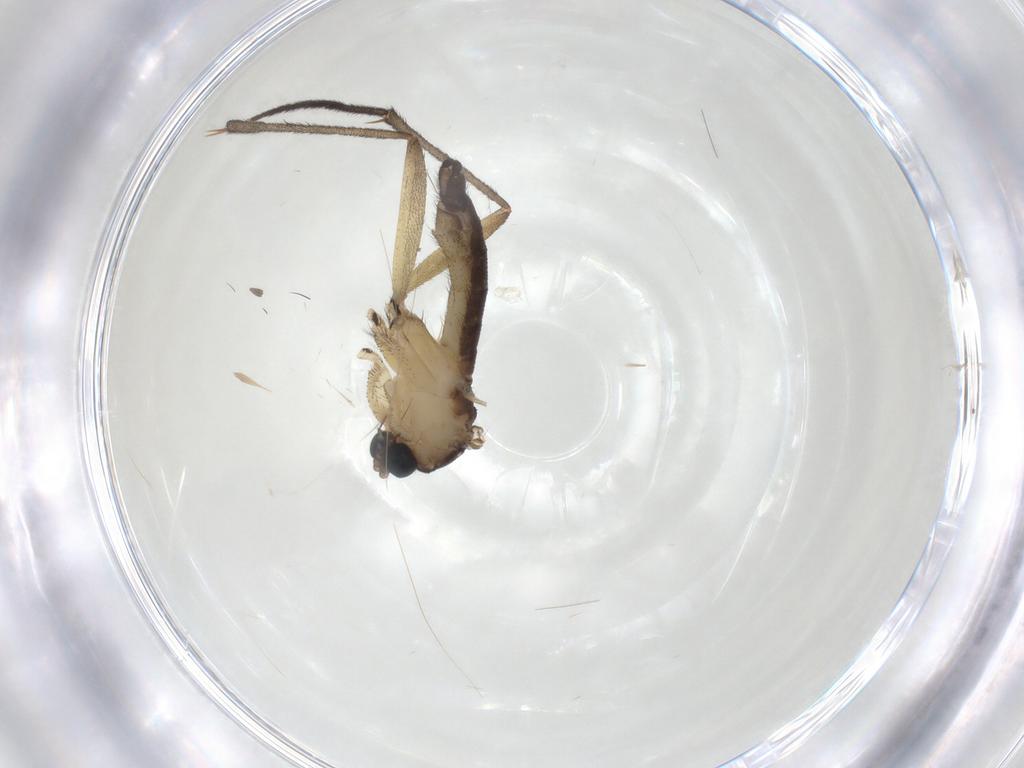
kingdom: Animalia
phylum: Arthropoda
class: Insecta
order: Diptera
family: Sciaridae
